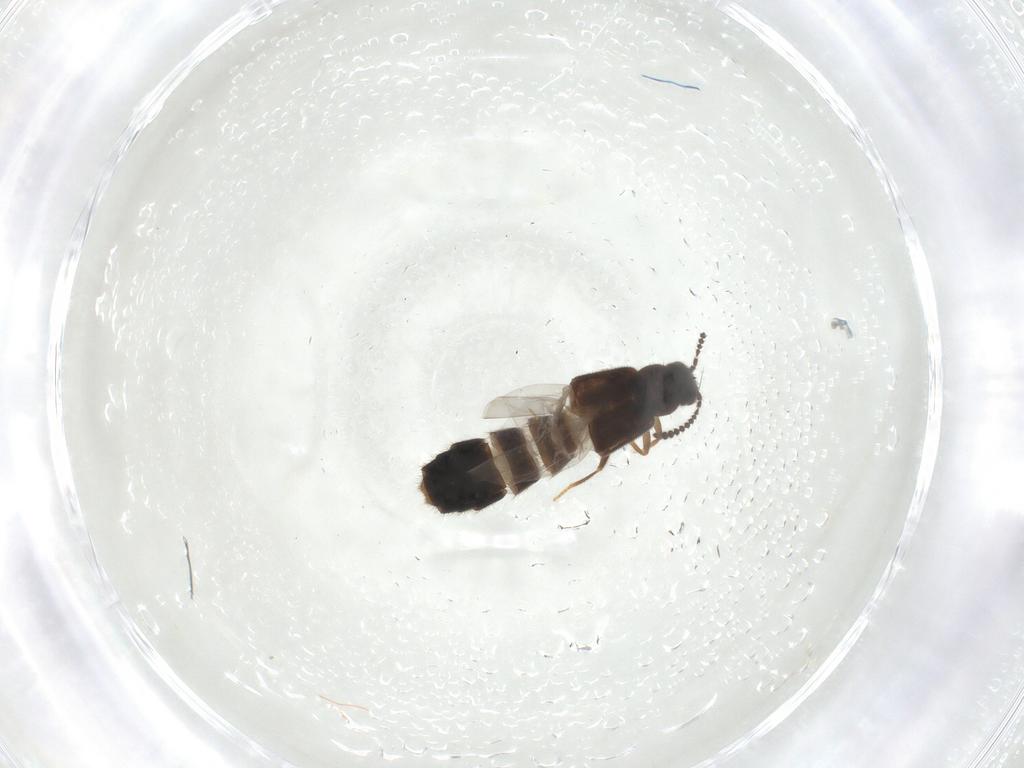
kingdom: Animalia
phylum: Arthropoda
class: Insecta
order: Coleoptera
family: Staphylinidae
